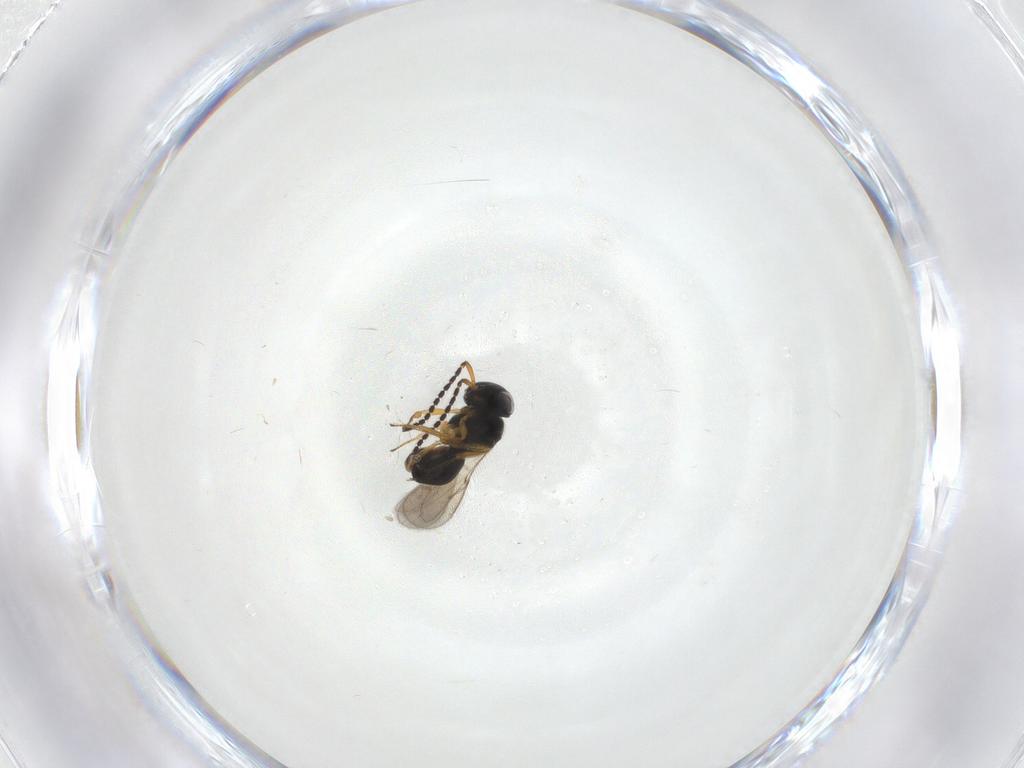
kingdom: Animalia
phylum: Arthropoda
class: Insecta
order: Hymenoptera
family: Scelionidae
